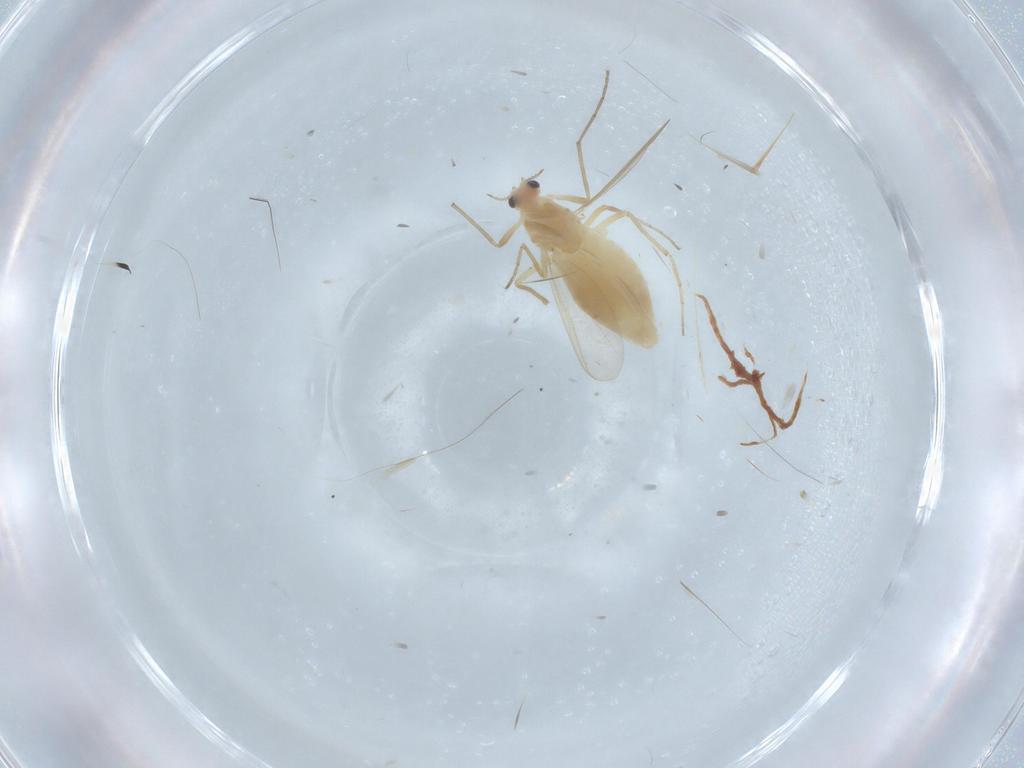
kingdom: Animalia
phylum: Arthropoda
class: Insecta
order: Diptera
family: Chironomidae
